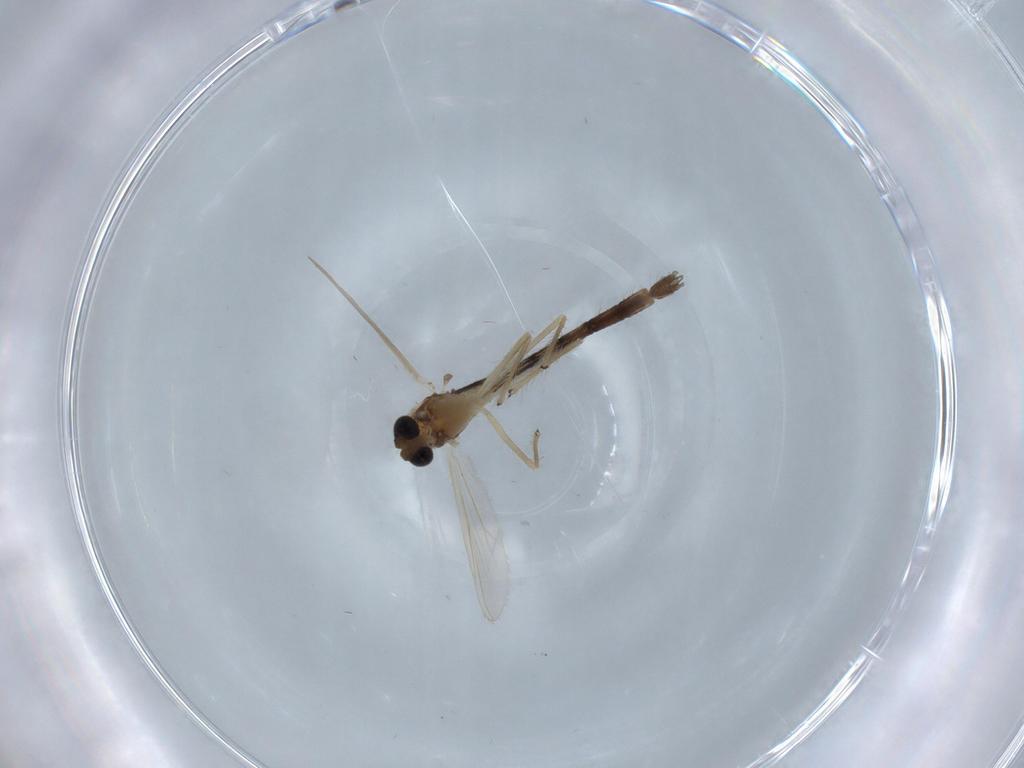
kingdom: Animalia
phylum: Arthropoda
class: Insecta
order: Diptera
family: Chironomidae
